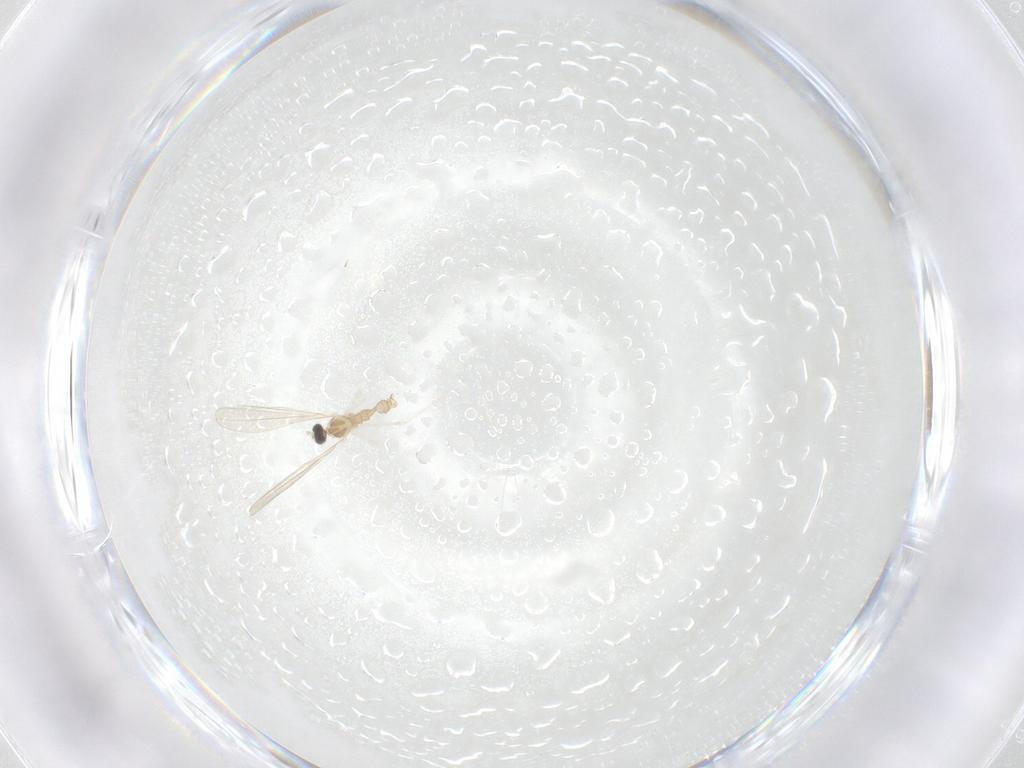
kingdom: Animalia
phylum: Arthropoda
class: Insecta
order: Diptera
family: Cecidomyiidae
